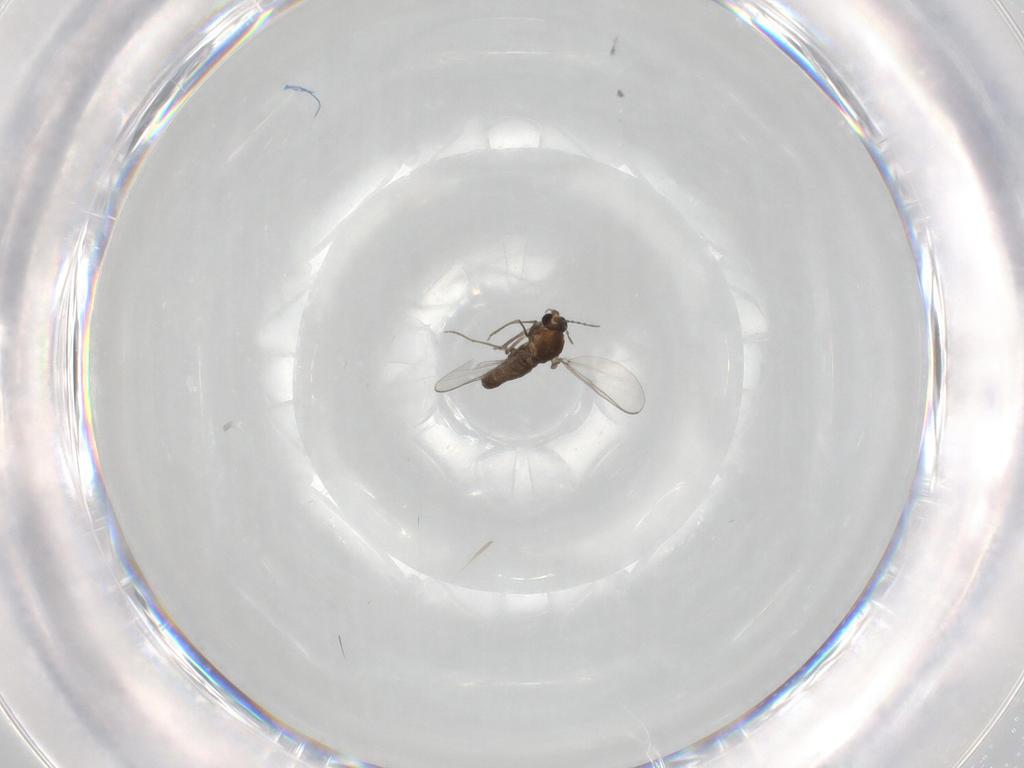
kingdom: Animalia
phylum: Arthropoda
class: Insecta
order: Diptera
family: Chironomidae
